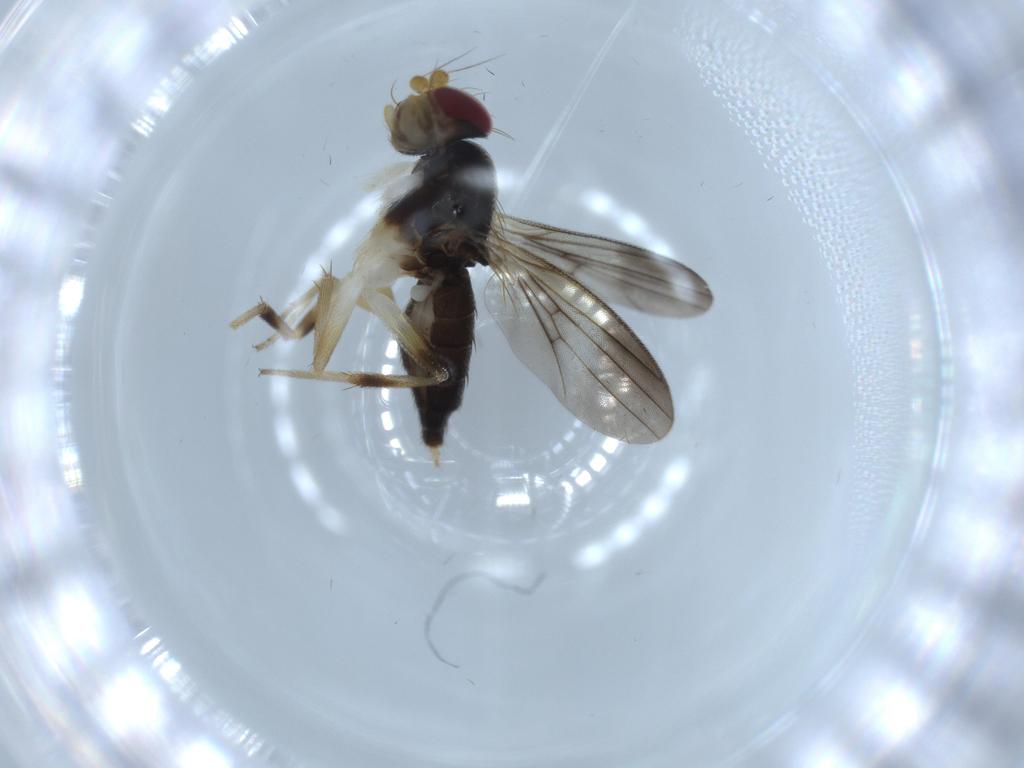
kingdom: Animalia
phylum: Arthropoda
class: Insecta
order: Diptera
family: Clusiidae
